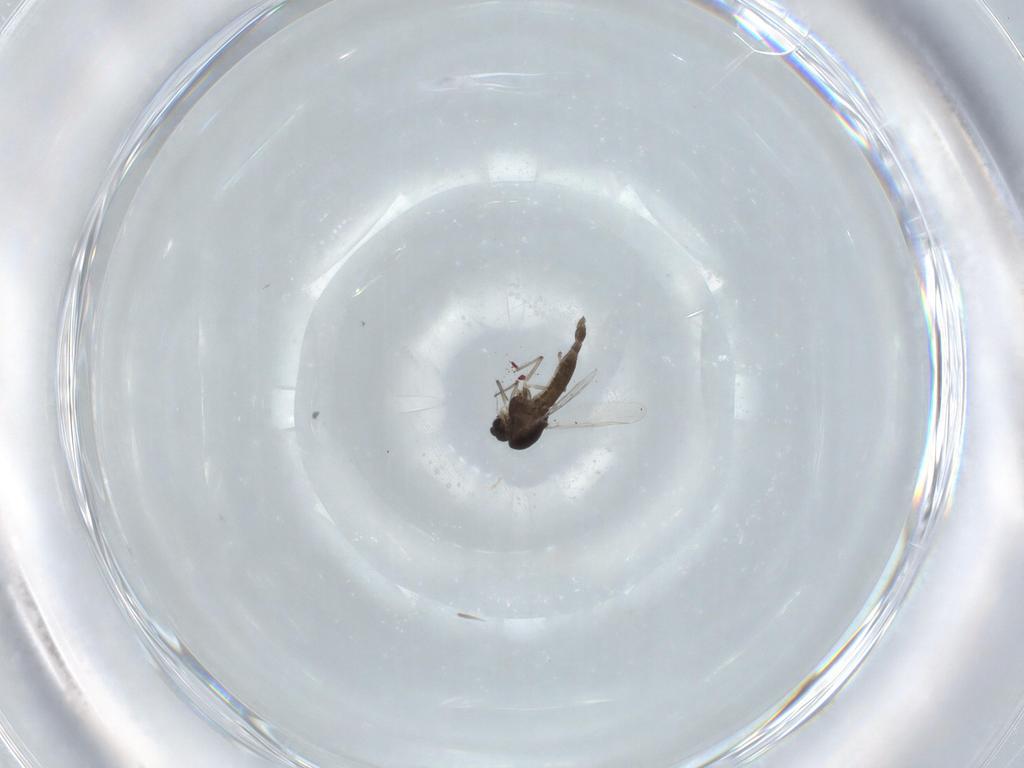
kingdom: Animalia
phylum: Arthropoda
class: Insecta
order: Diptera
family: Chironomidae
